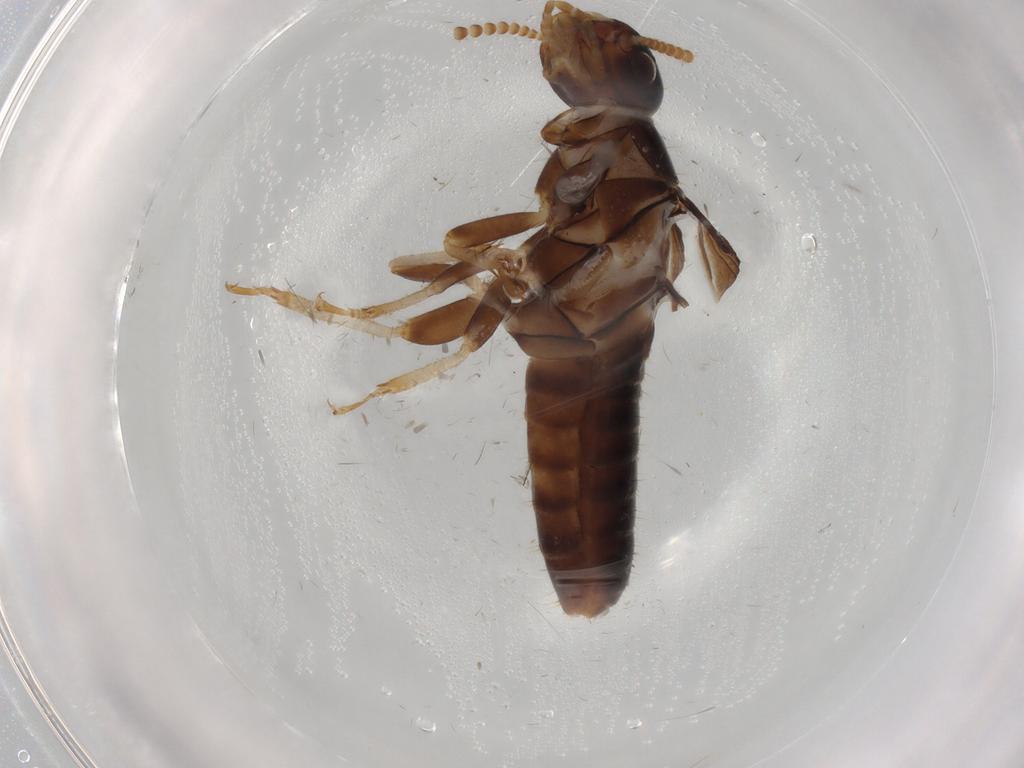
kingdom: Animalia
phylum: Arthropoda
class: Insecta
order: Blattodea
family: Kalotermitidae
